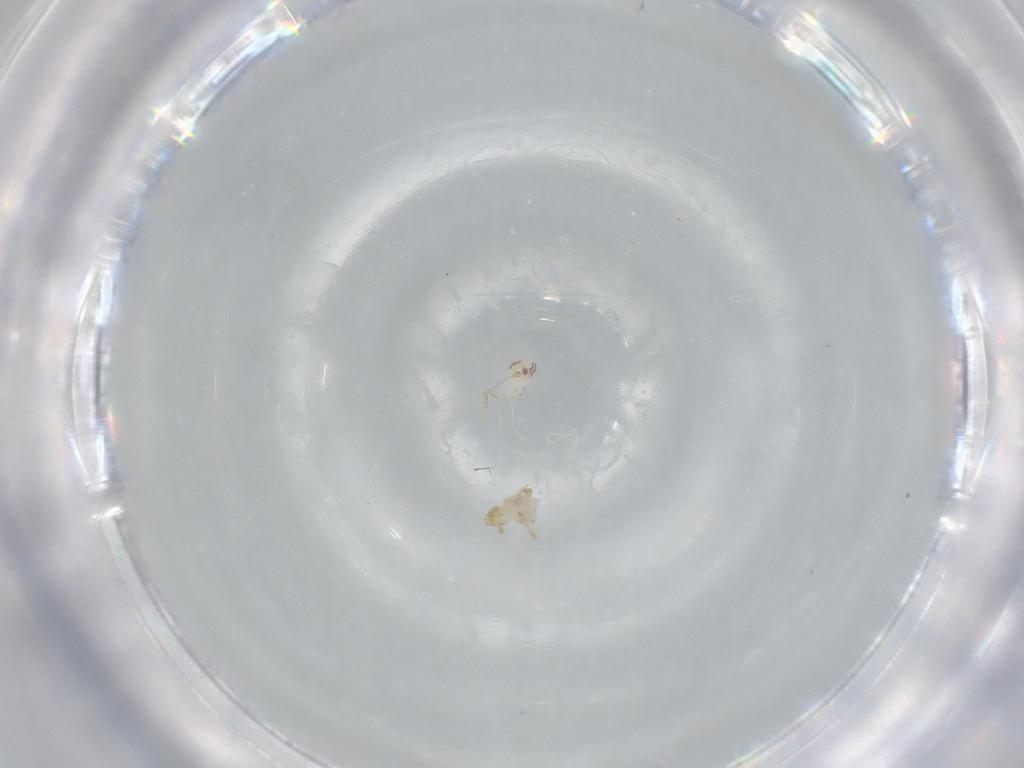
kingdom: Animalia
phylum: Arthropoda
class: Insecta
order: Hemiptera
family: Delphacidae
